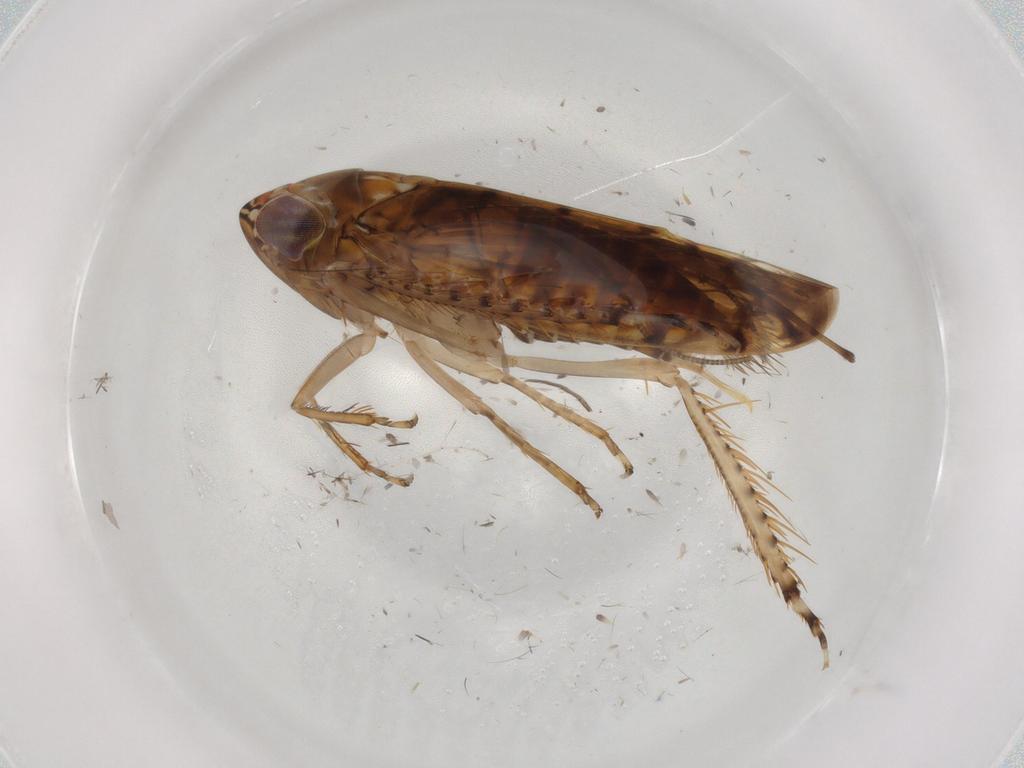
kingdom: Animalia
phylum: Arthropoda
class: Insecta
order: Hemiptera
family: Cicadellidae
